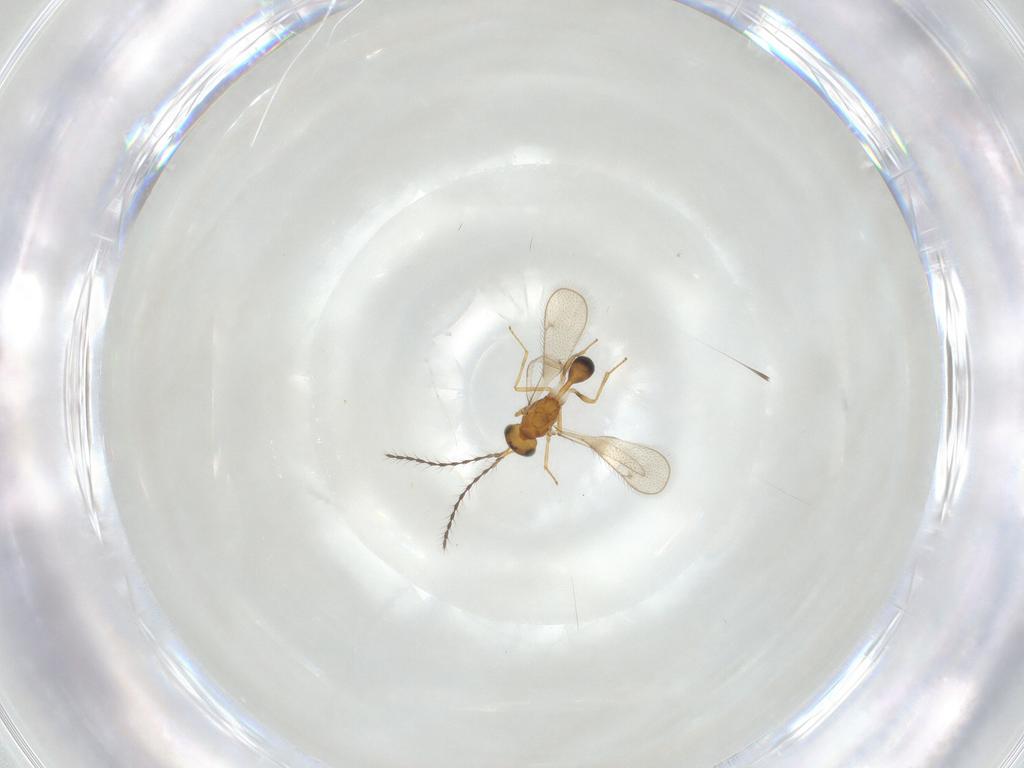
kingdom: Animalia
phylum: Arthropoda
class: Insecta
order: Hymenoptera
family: Diparidae
